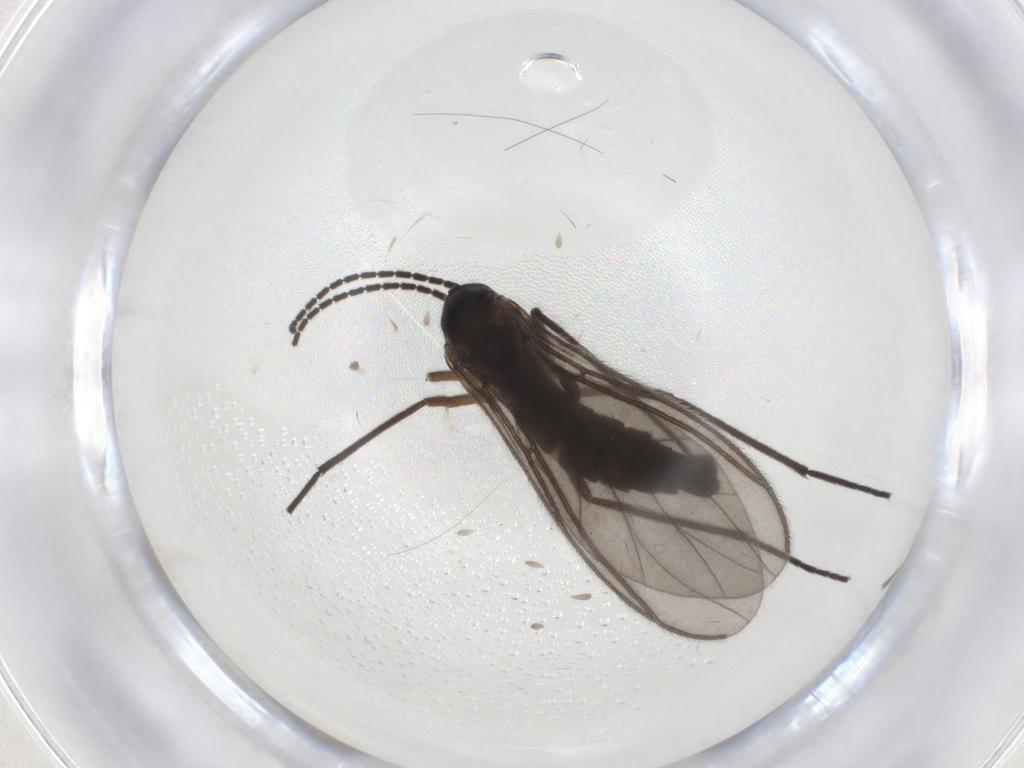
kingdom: Animalia
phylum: Arthropoda
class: Insecta
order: Diptera
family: Sciaridae
